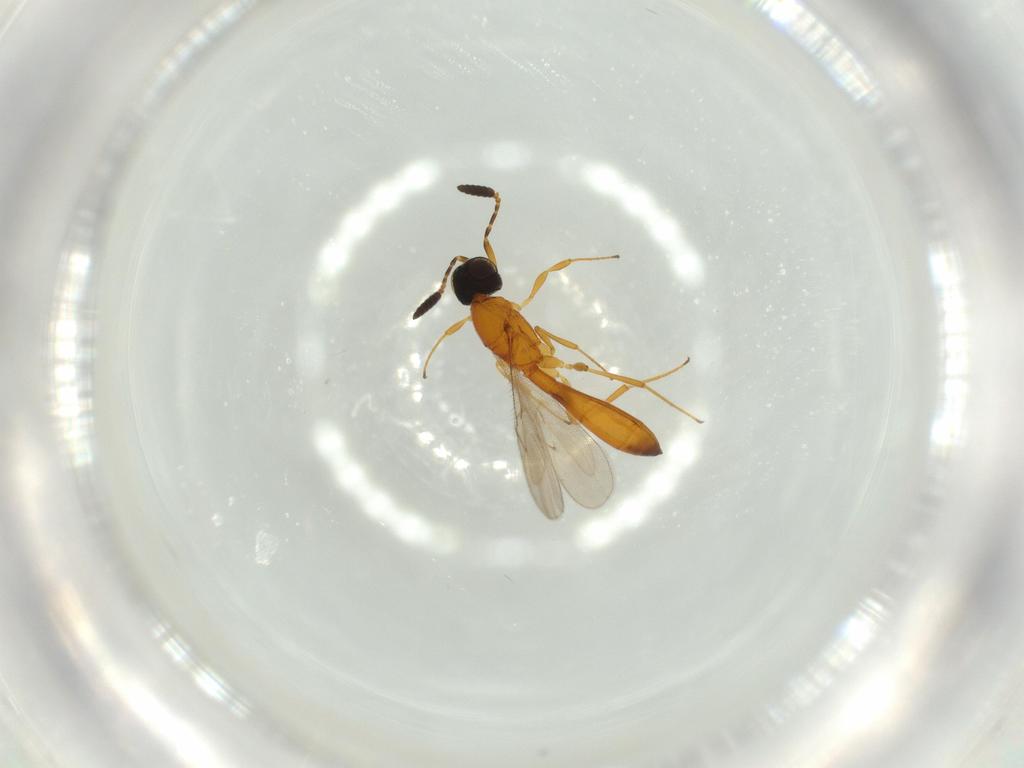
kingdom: Animalia
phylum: Arthropoda
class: Insecta
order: Hymenoptera
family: Scelionidae
